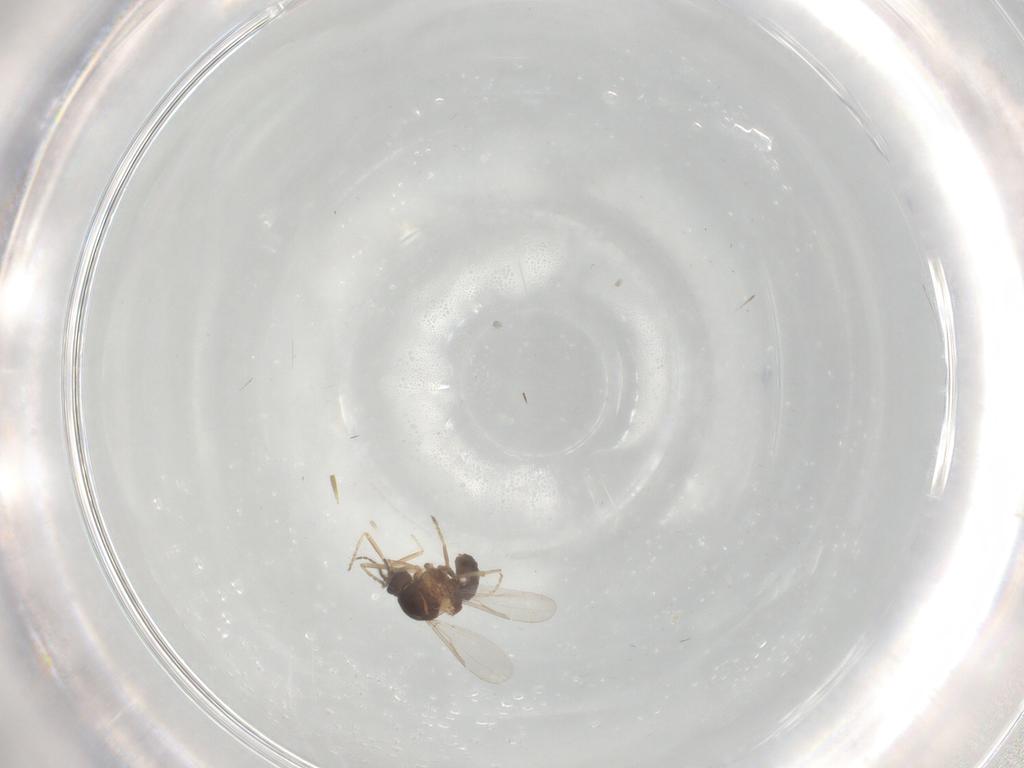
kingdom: Animalia
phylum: Arthropoda
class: Insecta
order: Diptera
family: Ceratopogonidae
